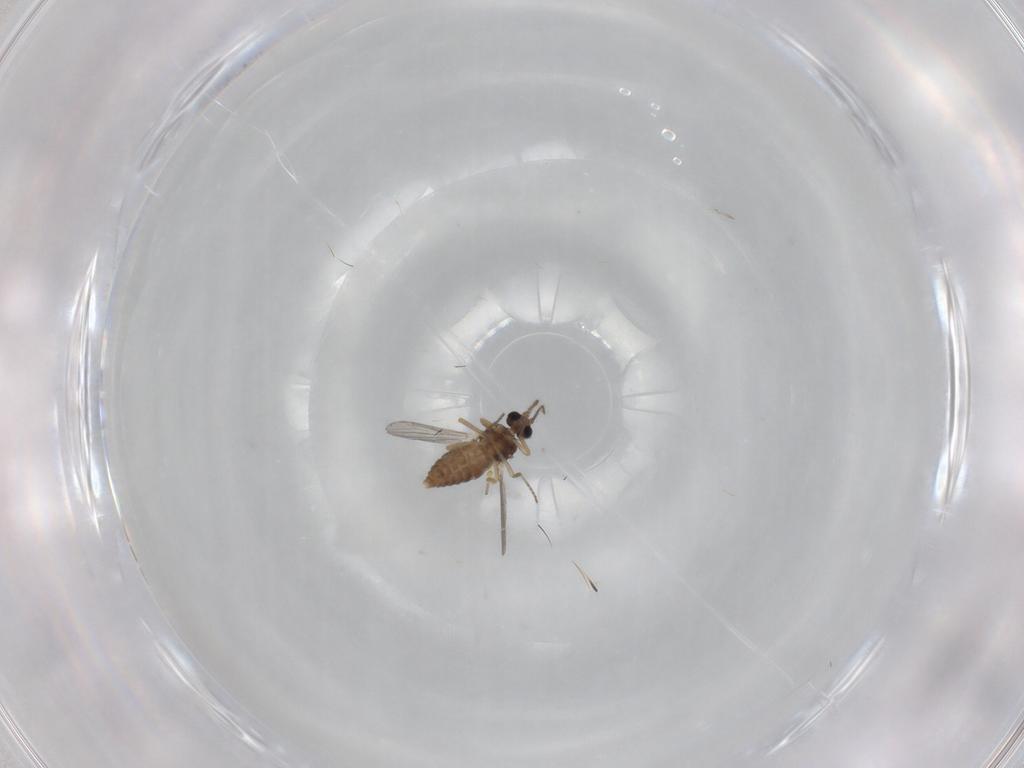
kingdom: Animalia
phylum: Arthropoda
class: Insecta
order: Diptera
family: Ceratopogonidae
